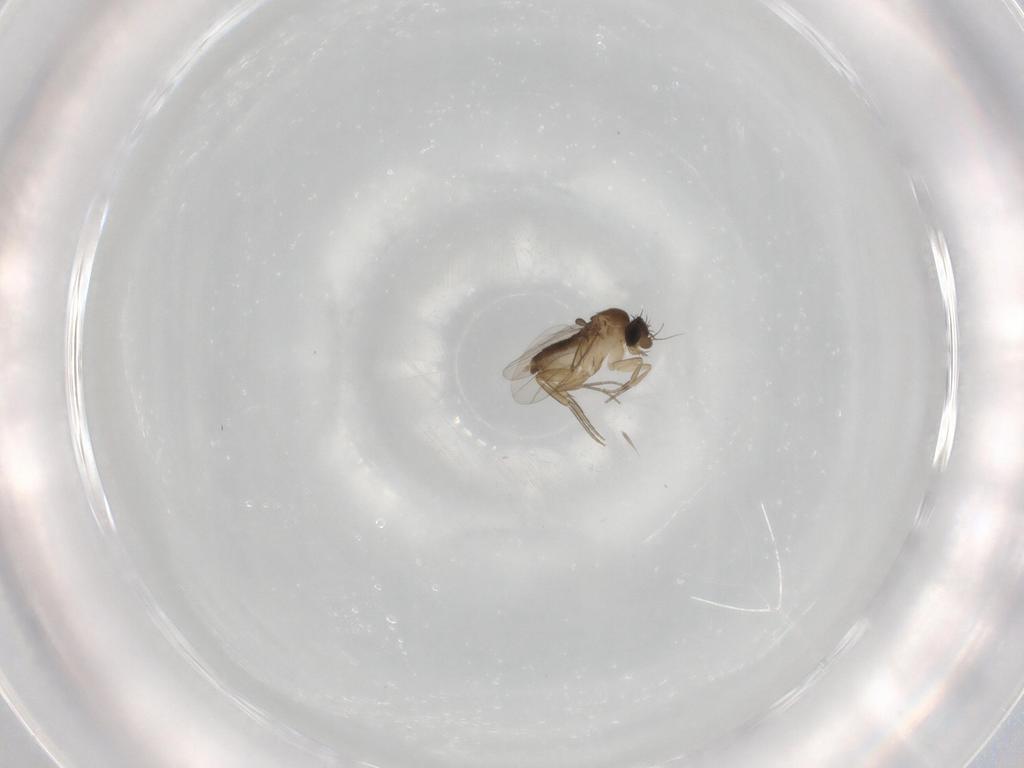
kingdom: Animalia
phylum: Arthropoda
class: Insecta
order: Diptera
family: Psychodidae
